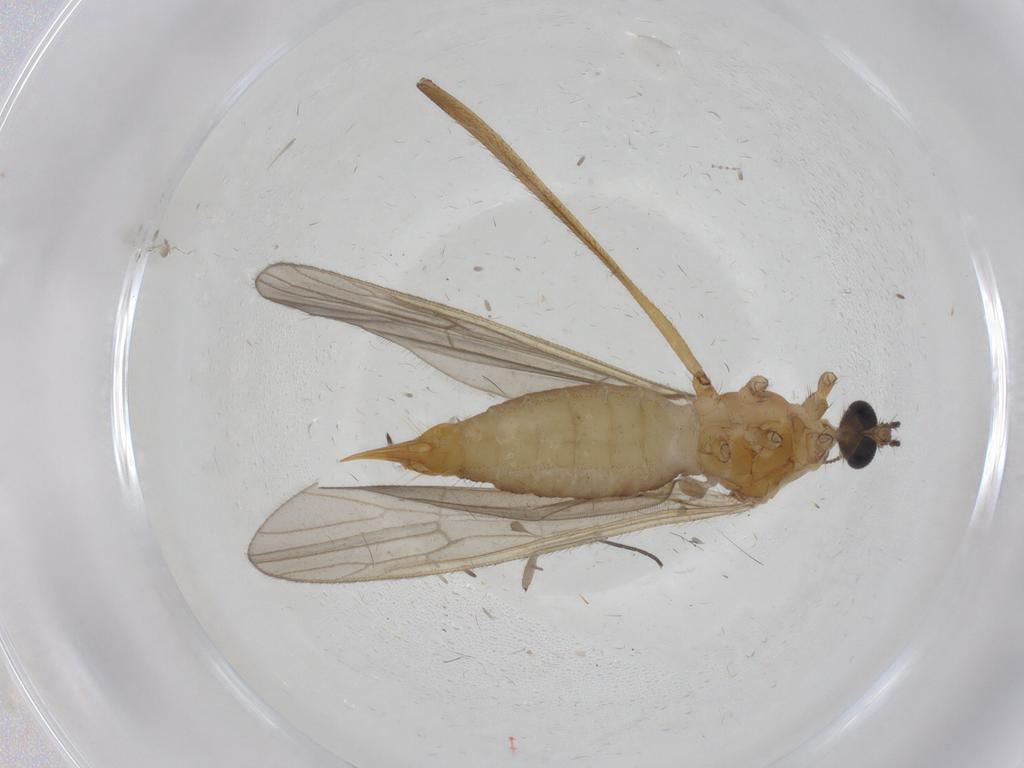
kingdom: Animalia
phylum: Arthropoda
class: Insecta
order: Diptera
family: Limoniidae
